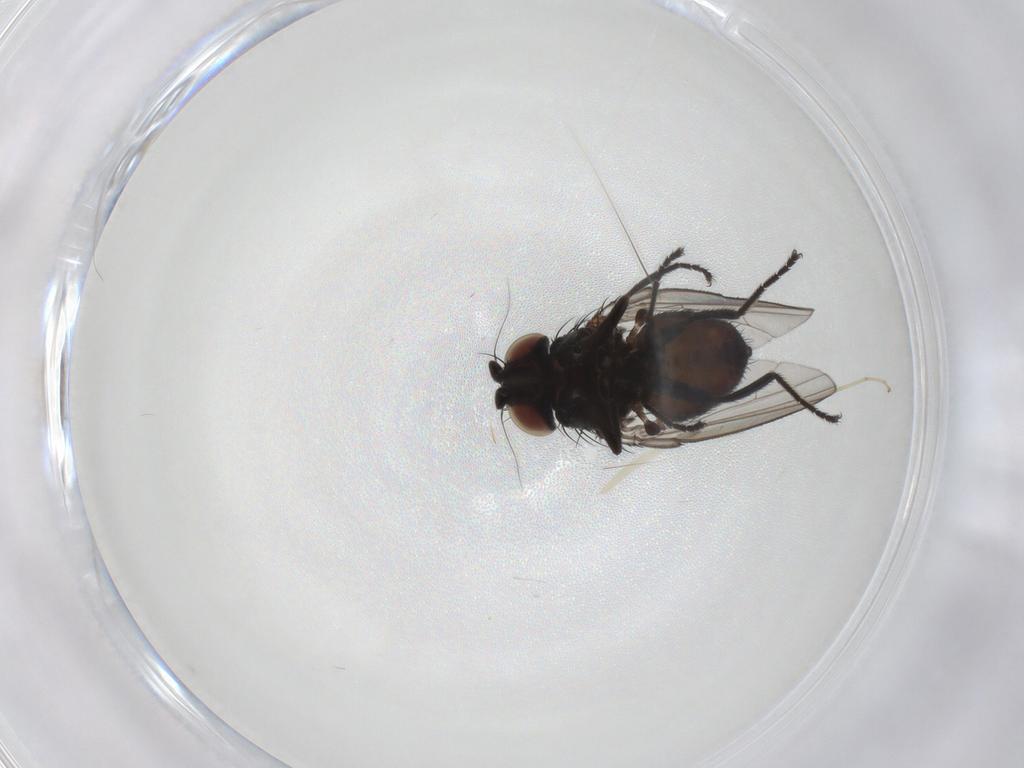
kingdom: Animalia
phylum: Arthropoda
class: Insecta
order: Diptera
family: Milichiidae
